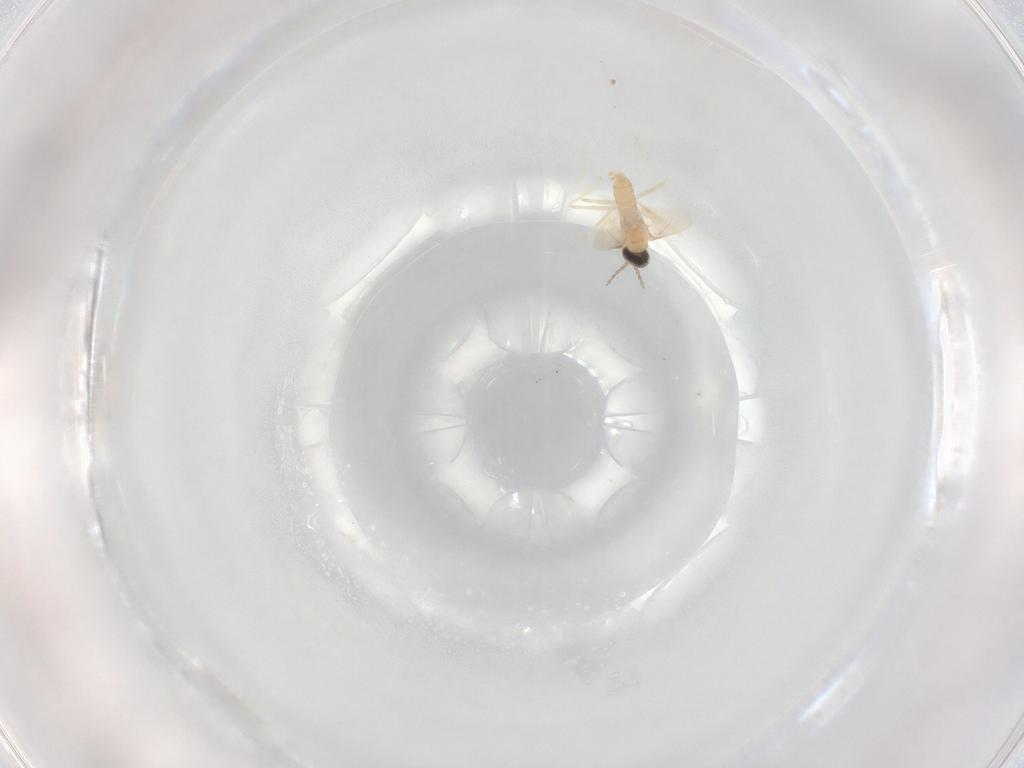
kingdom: Animalia
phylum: Arthropoda
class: Insecta
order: Diptera
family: Cecidomyiidae
